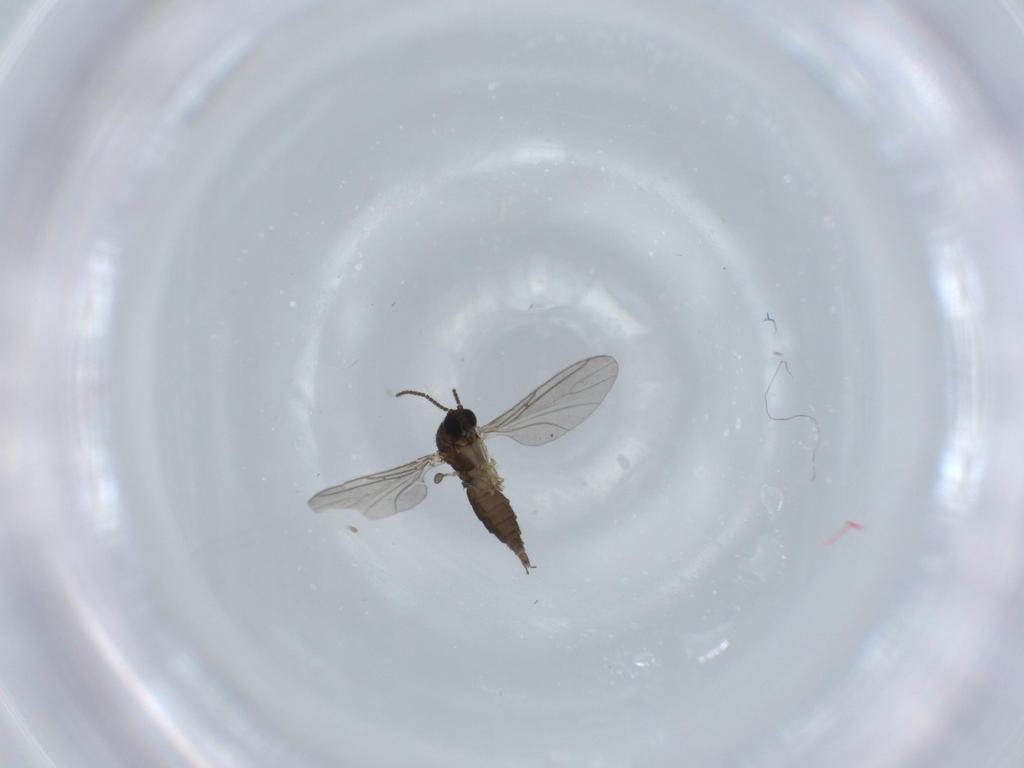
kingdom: Animalia
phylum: Arthropoda
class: Insecta
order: Diptera
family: Sciaridae
